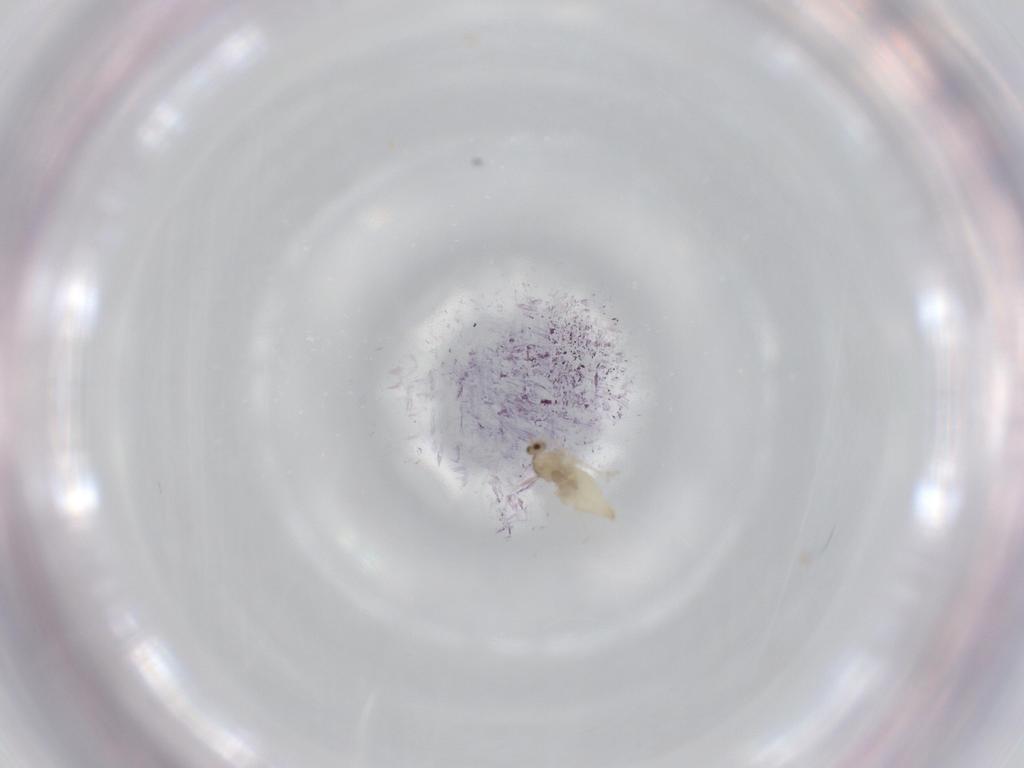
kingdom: Animalia
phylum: Arthropoda
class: Insecta
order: Diptera
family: Cecidomyiidae
